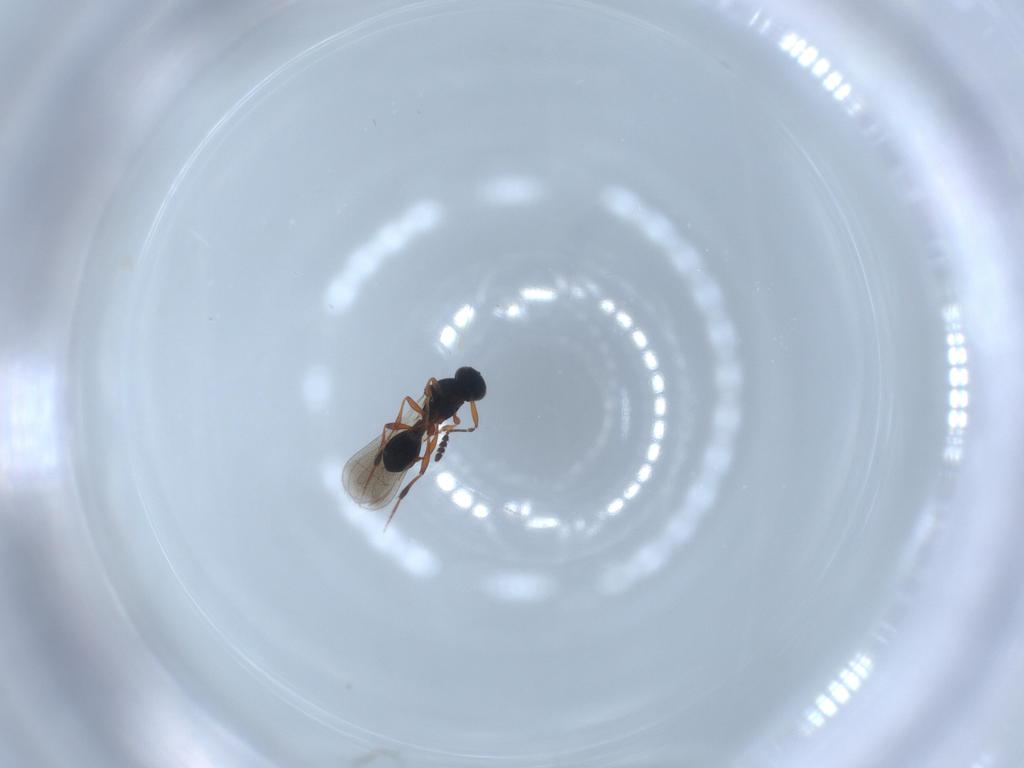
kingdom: Animalia
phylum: Arthropoda
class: Insecta
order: Hymenoptera
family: Platygastridae
